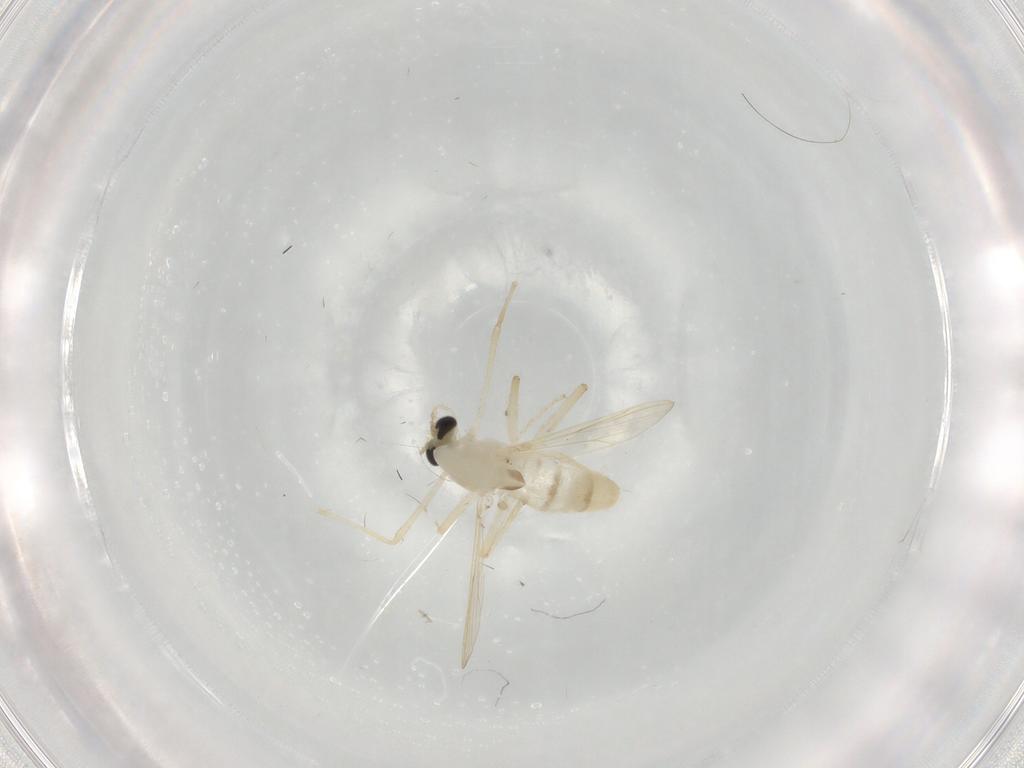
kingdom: Animalia
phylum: Arthropoda
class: Insecta
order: Diptera
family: Chironomidae
